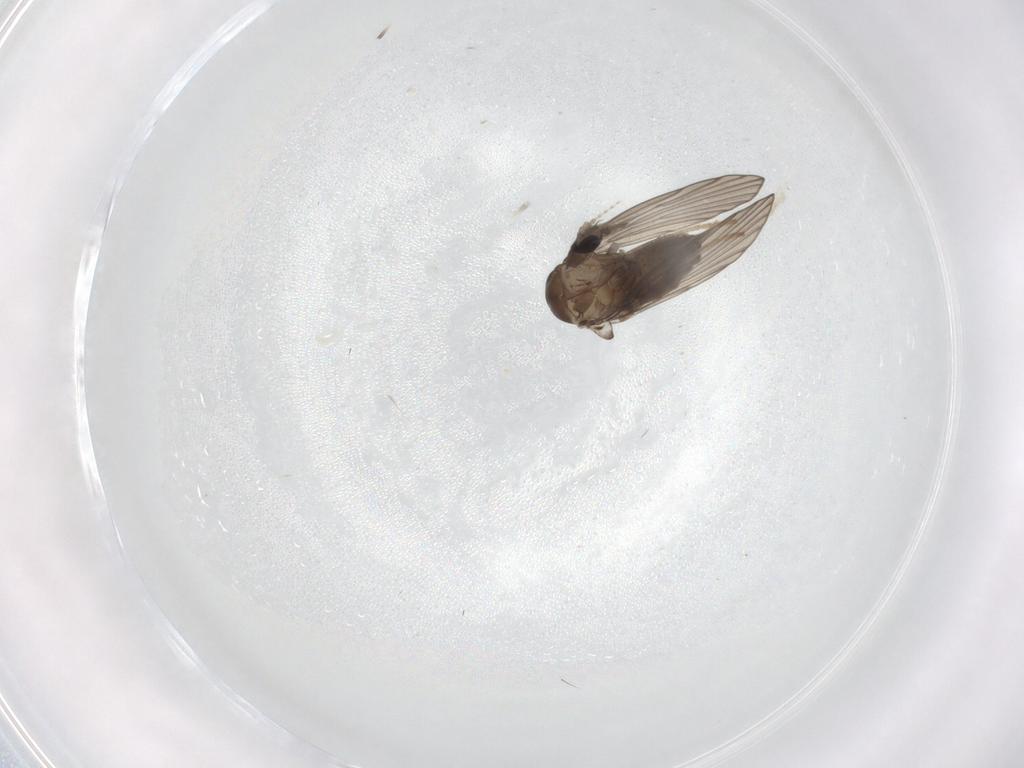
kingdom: Animalia
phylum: Arthropoda
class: Insecta
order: Diptera
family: Psychodidae
